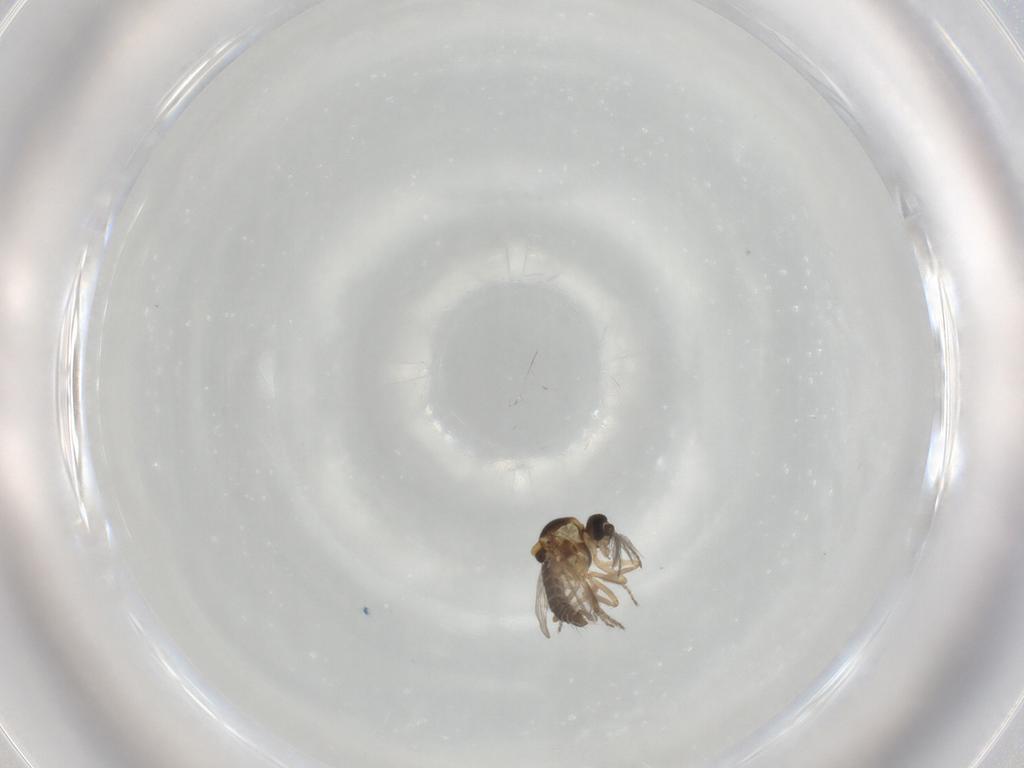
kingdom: Animalia
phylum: Arthropoda
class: Insecta
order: Diptera
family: Ceratopogonidae
